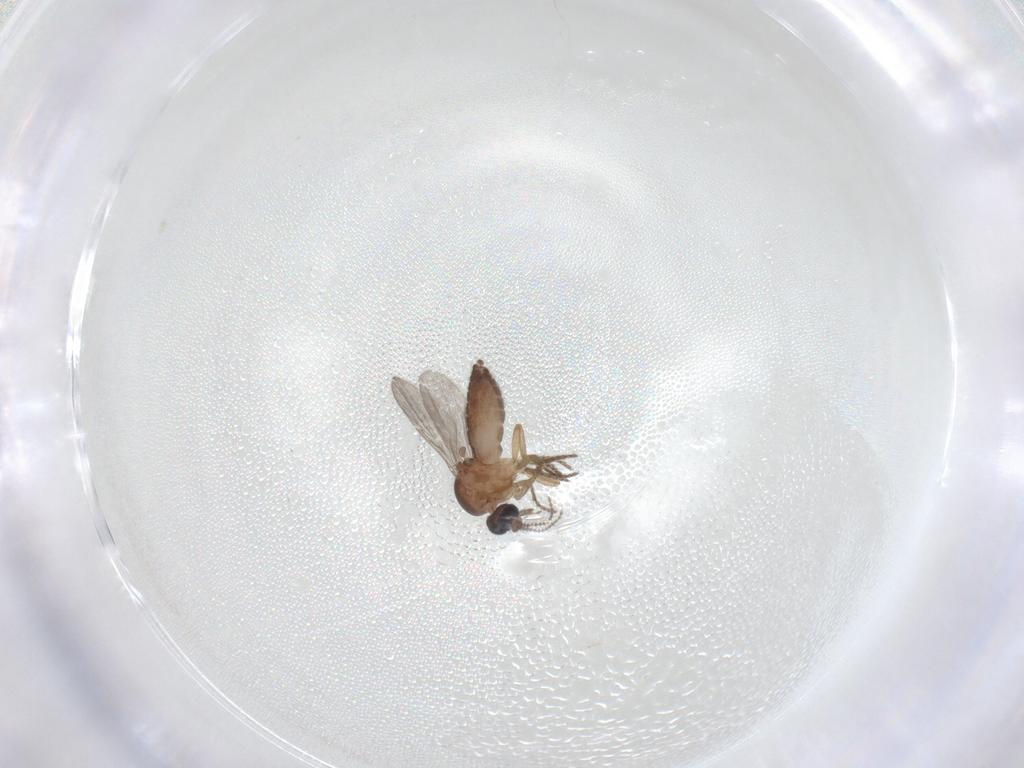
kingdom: Animalia
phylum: Arthropoda
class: Insecta
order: Diptera
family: Ceratopogonidae
